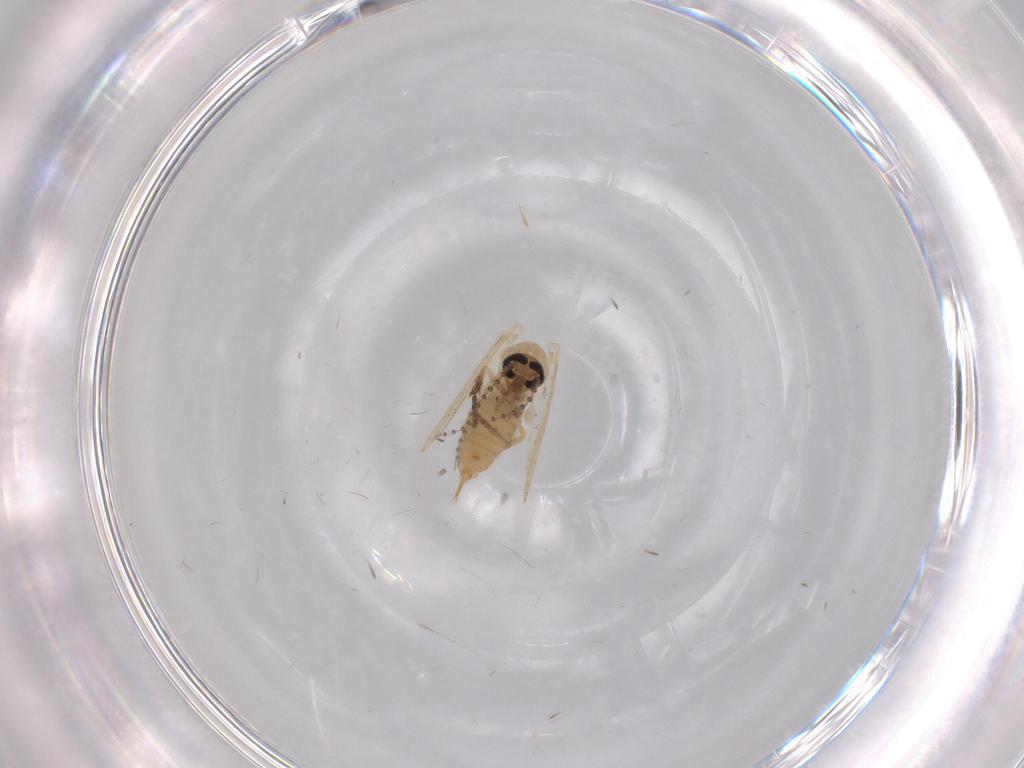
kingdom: Animalia
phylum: Arthropoda
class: Insecta
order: Diptera
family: Psychodidae
